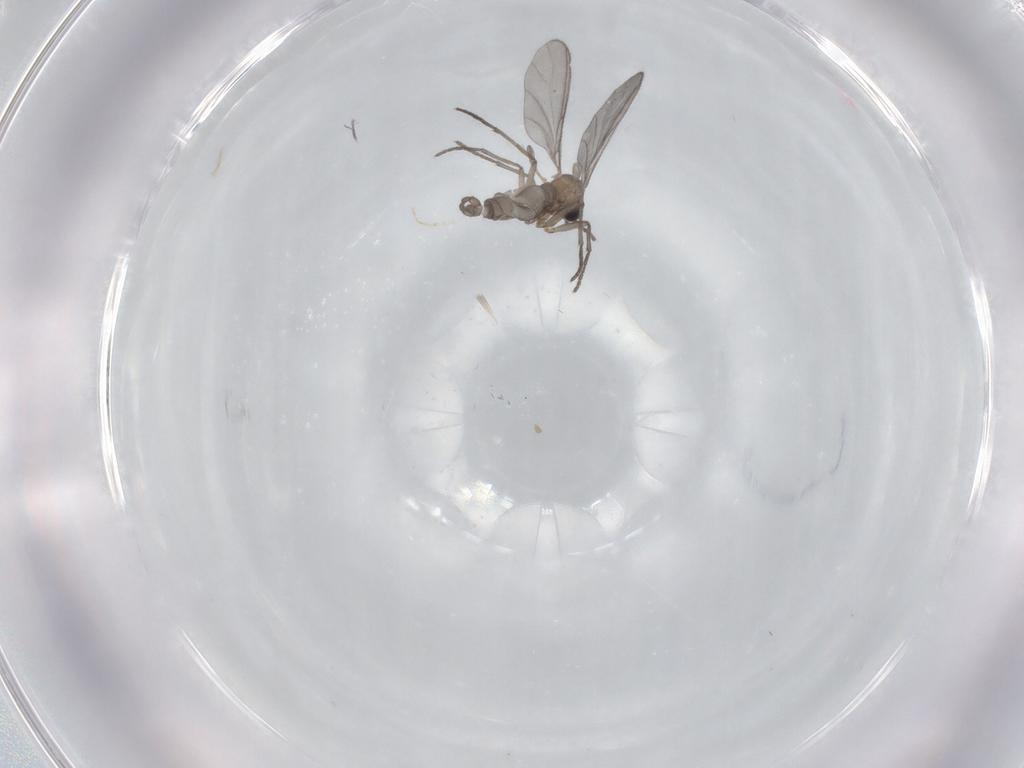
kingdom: Animalia
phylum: Arthropoda
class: Insecta
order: Diptera
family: Sciaridae
